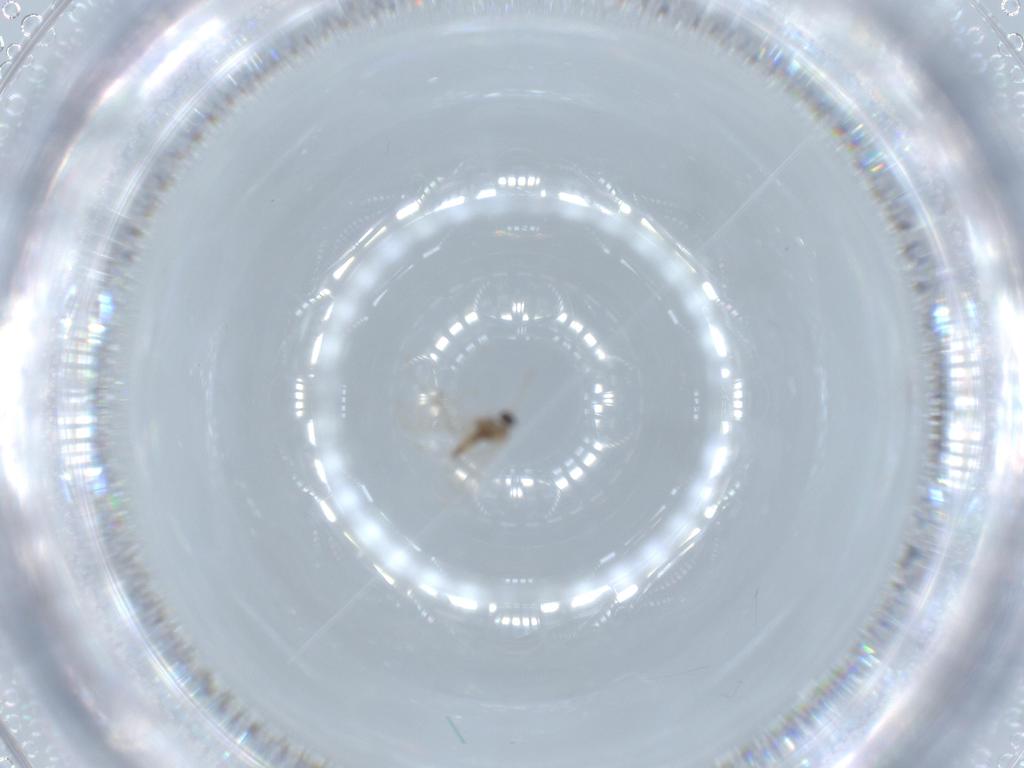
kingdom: Animalia
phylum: Arthropoda
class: Insecta
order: Diptera
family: Cecidomyiidae
